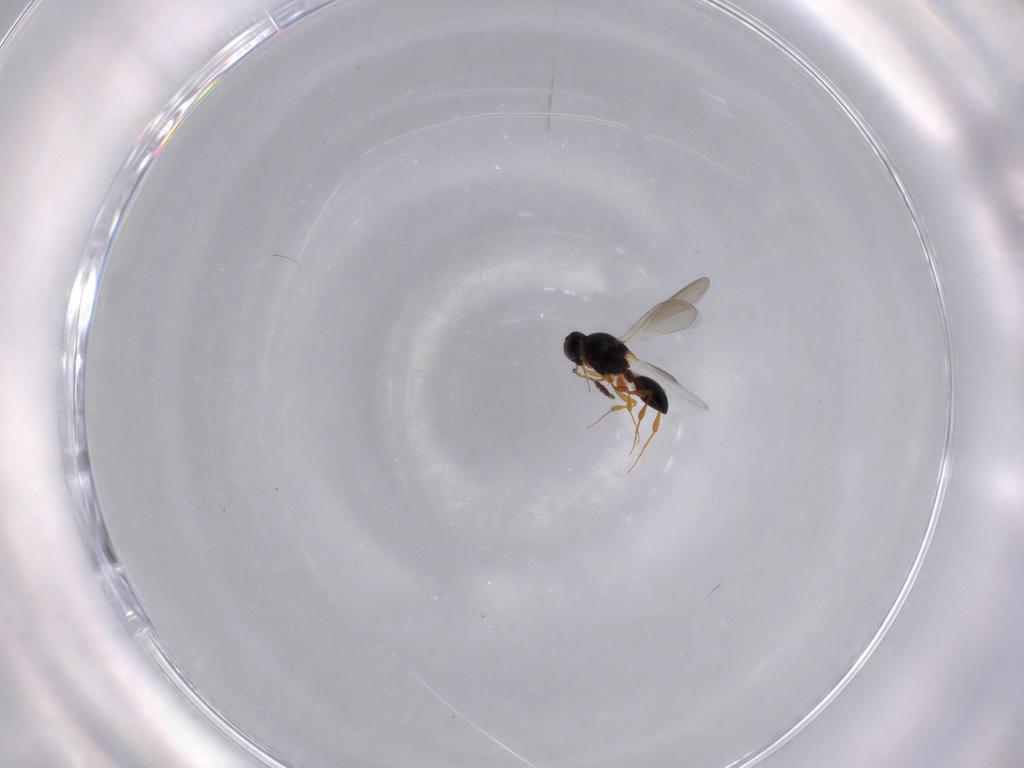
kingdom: Animalia
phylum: Arthropoda
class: Insecta
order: Hymenoptera
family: Platygastridae
